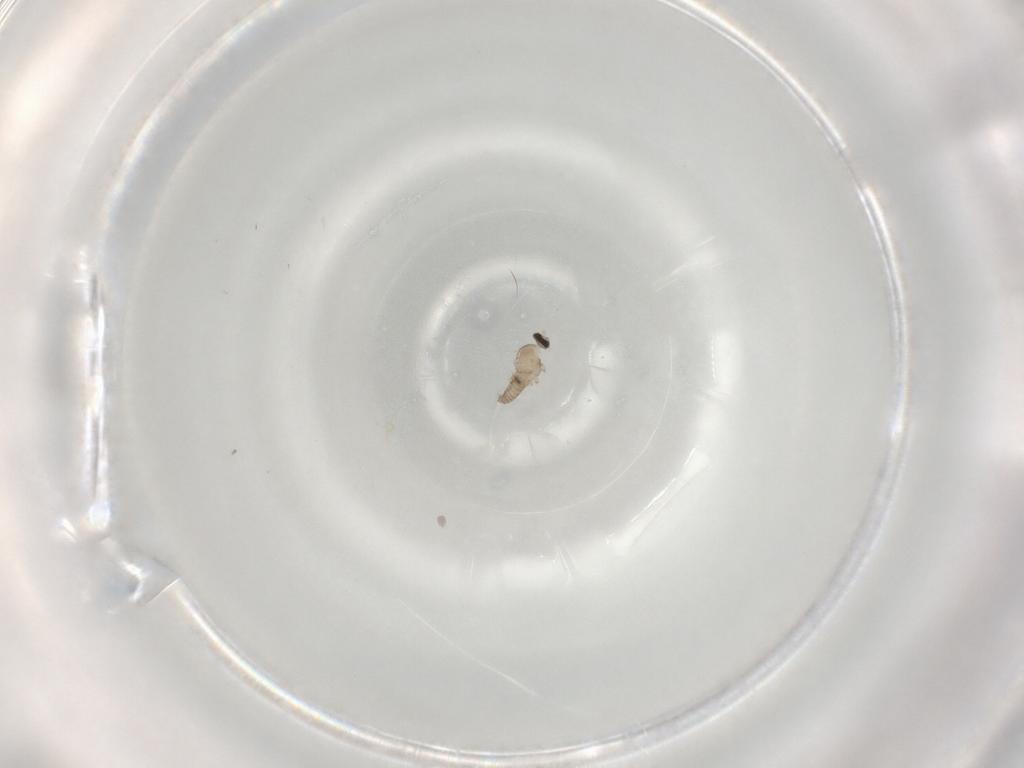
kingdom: Animalia
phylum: Arthropoda
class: Insecta
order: Diptera
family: Cecidomyiidae
